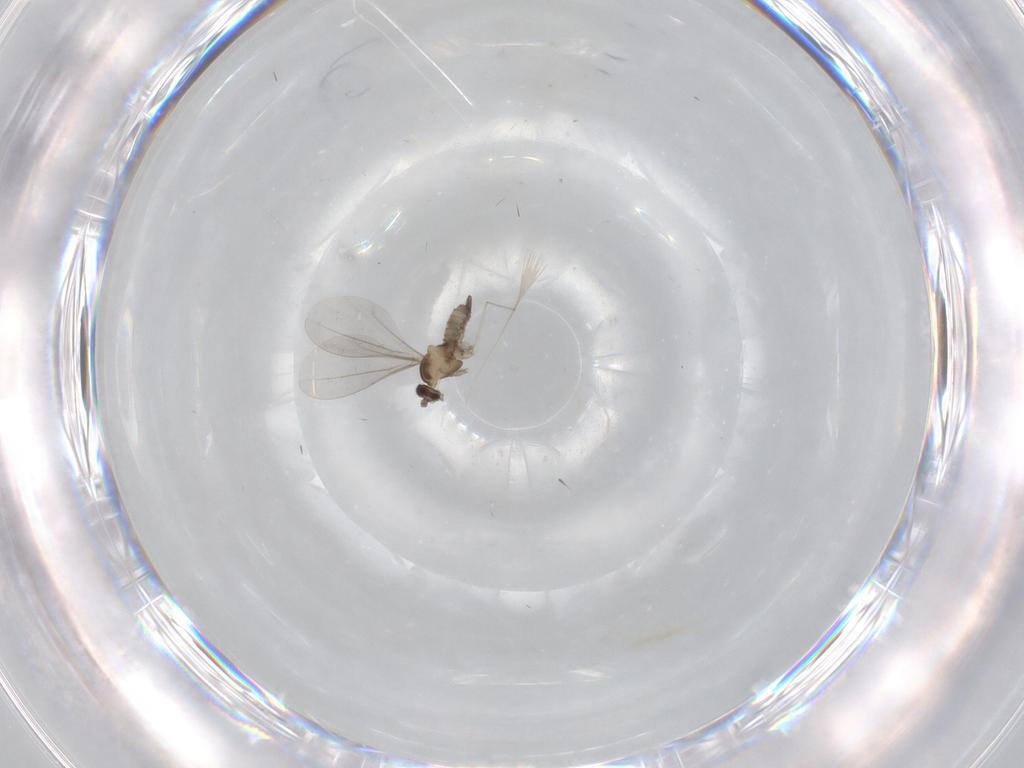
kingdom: Animalia
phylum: Arthropoda
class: Insecta
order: Diptera
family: Cecidomyiidae
